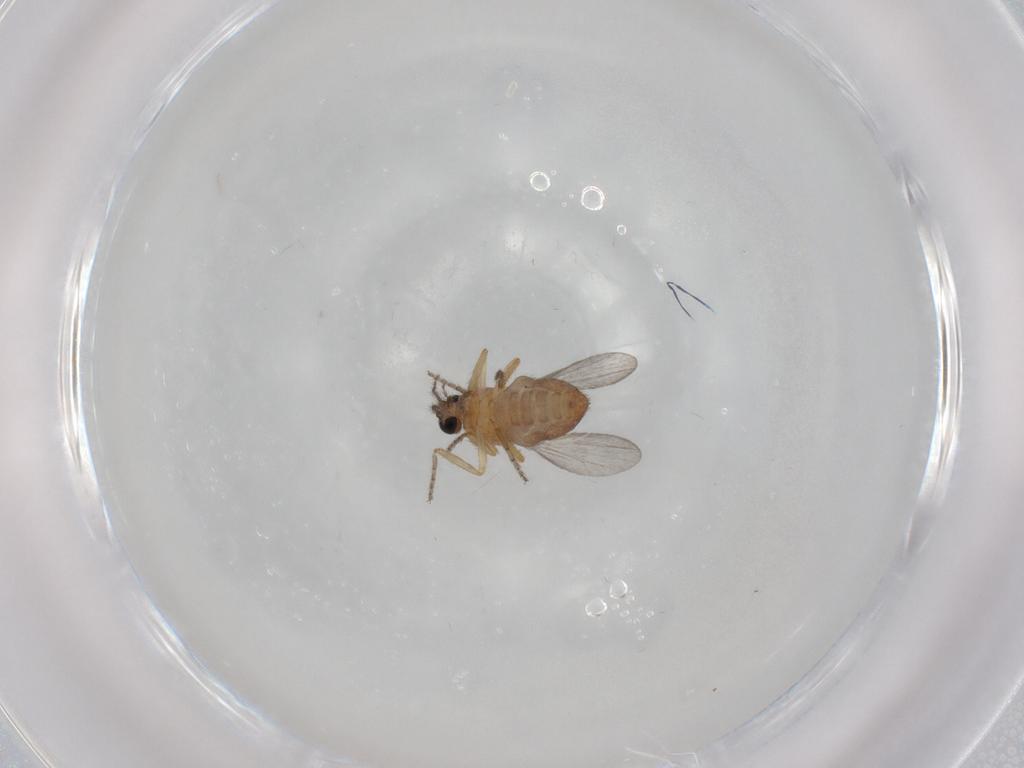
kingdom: Animalia
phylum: Arthropoda
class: Insecta
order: Diptera
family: Ceratopogonidae
